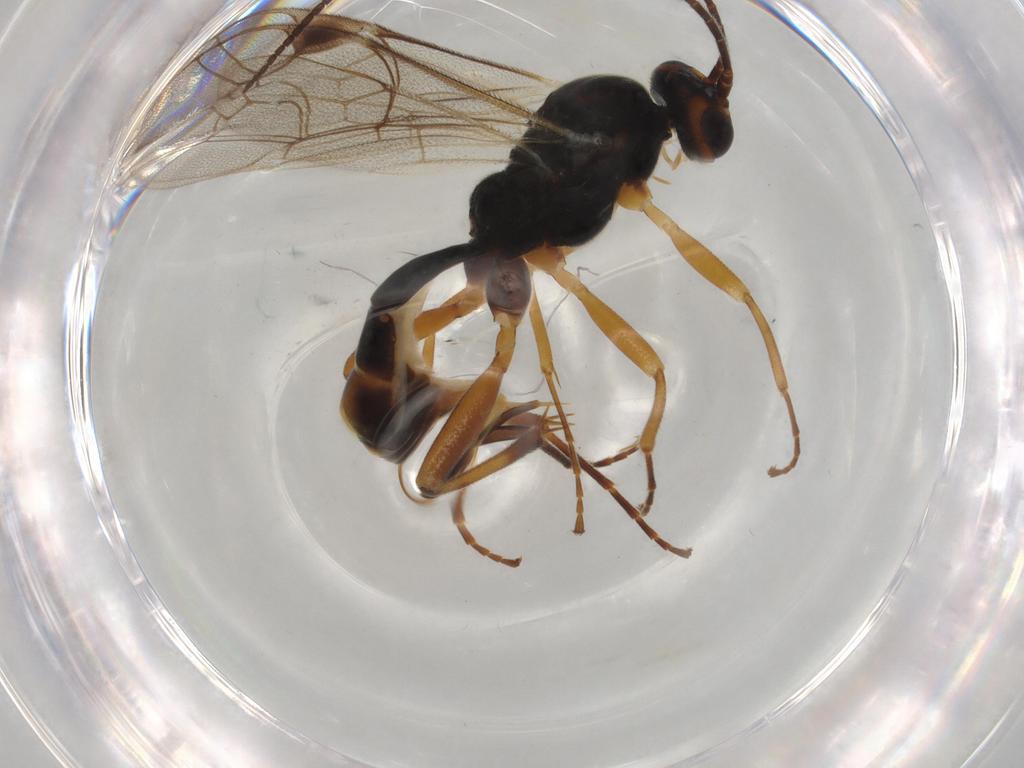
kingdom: Animalia
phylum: Arthropoda
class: Insecta
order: Hymenoptera
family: Ichneumonidae
